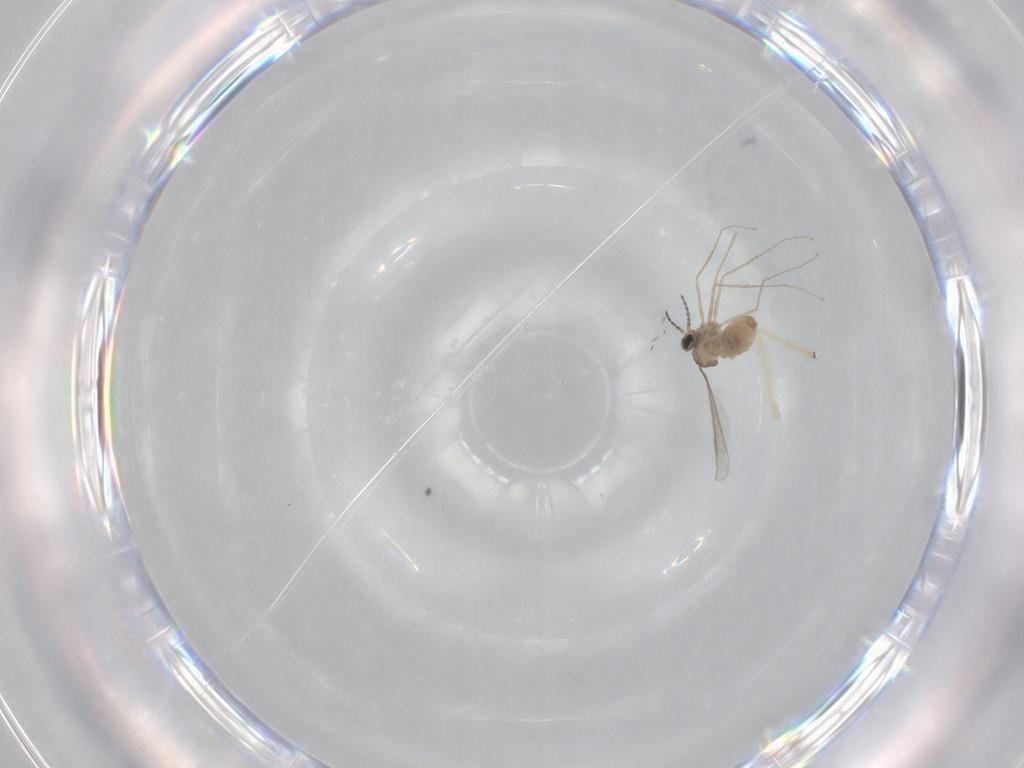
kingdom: Animalia
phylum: Arthropoda
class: Insecta
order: Diptera
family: Cecidomyiidae
